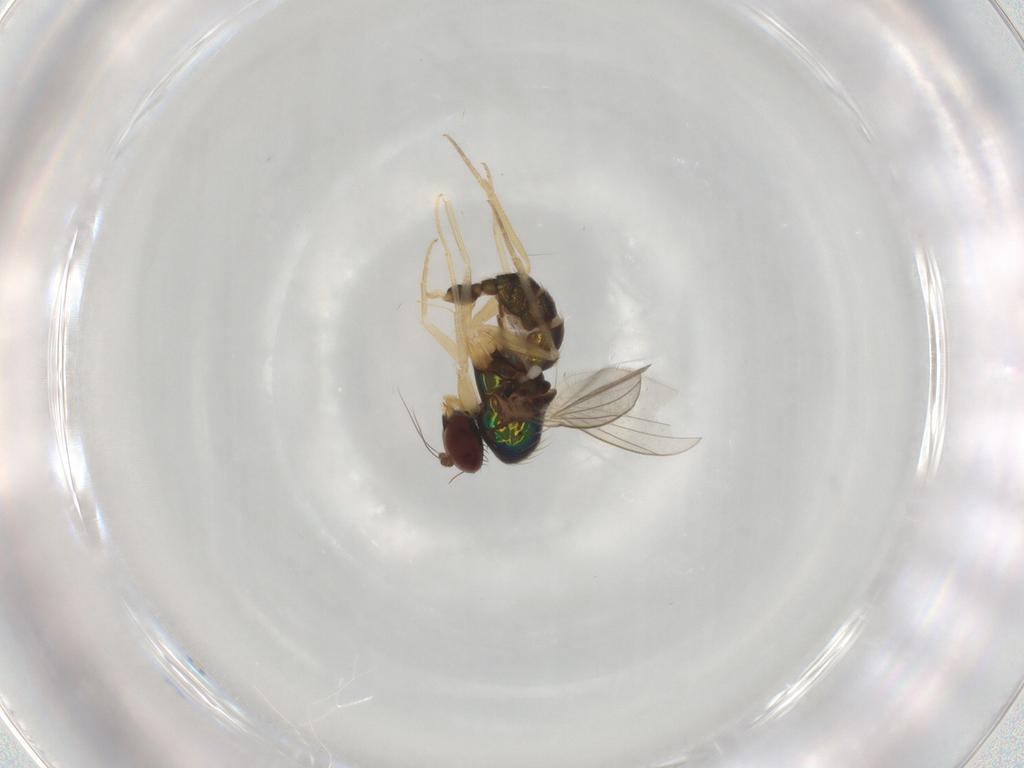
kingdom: Animalia
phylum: Arthropoda
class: Insecta
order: Diptera
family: Dolichopodidae
